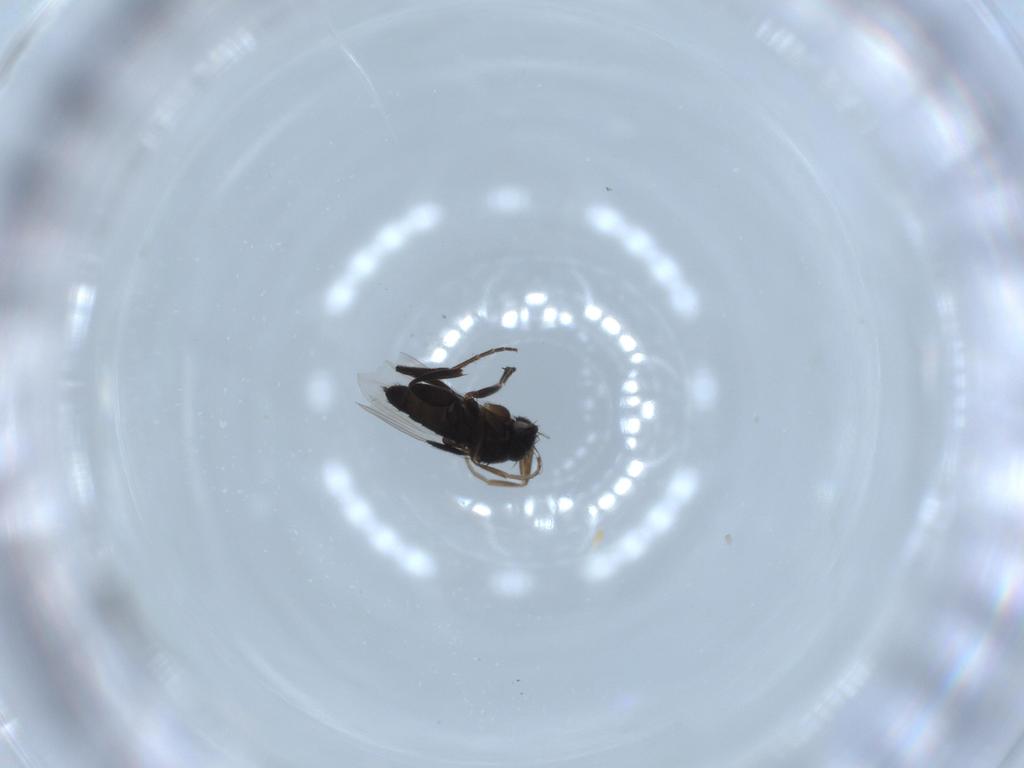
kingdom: Animalia
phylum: Arthropoda
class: Insecta
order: Diptera
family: Phoridae
